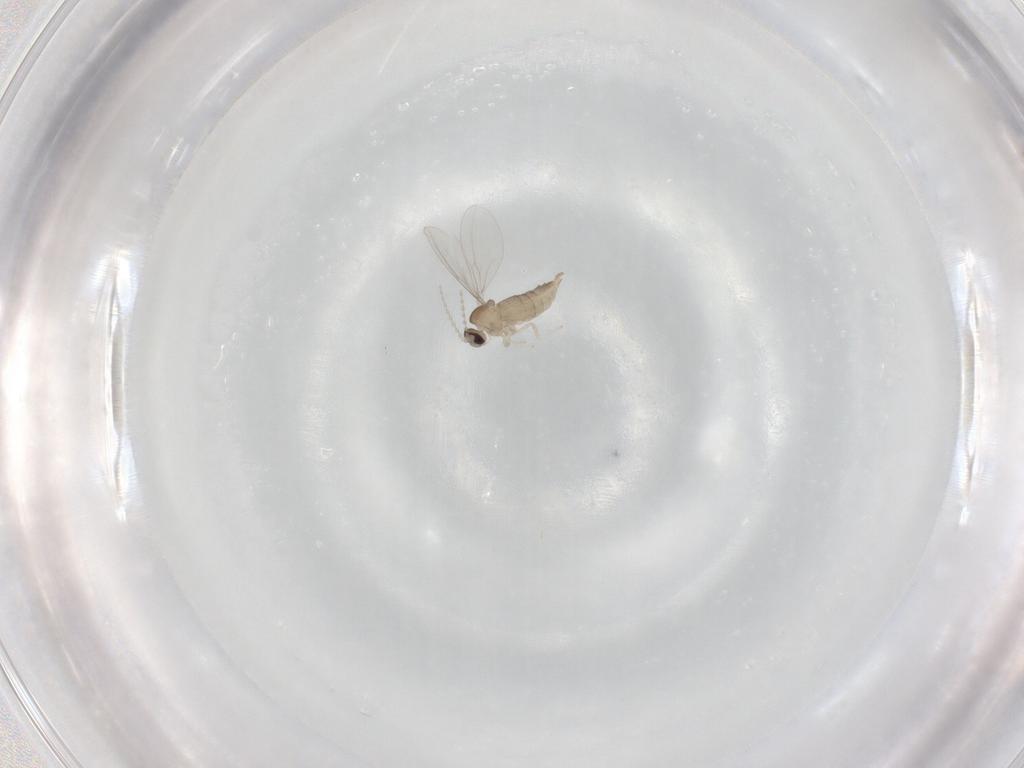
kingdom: Animalia
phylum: Arthropoda
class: Insecta
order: Diptera
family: Cecidomyiidae
